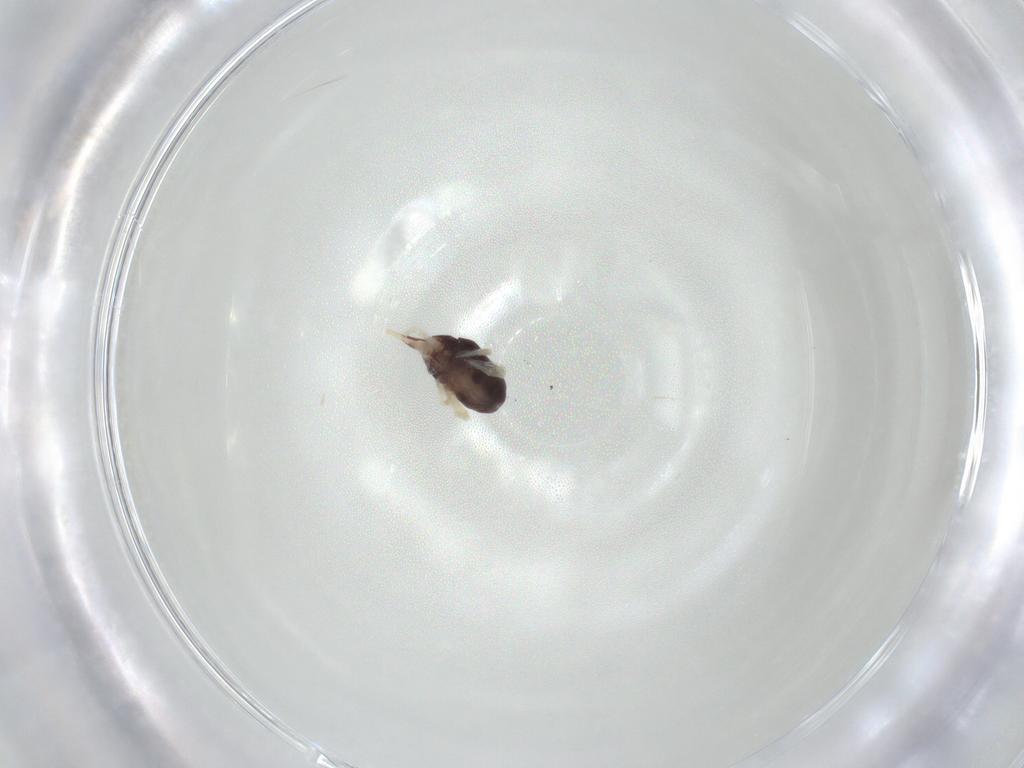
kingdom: Animalia
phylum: Arthropoda
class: Arachnida
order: Trombidiformes
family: Bdellidae
